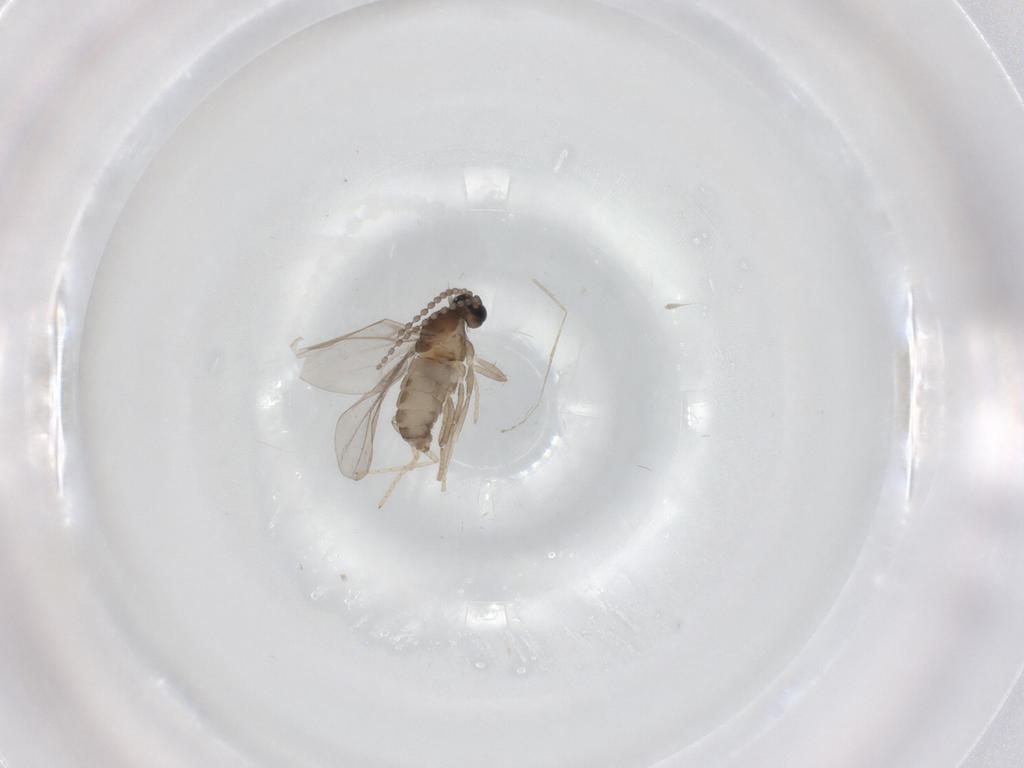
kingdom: Animalia
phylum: Arthropoda
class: Insecta
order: Diptera
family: Cecidomyiidae
